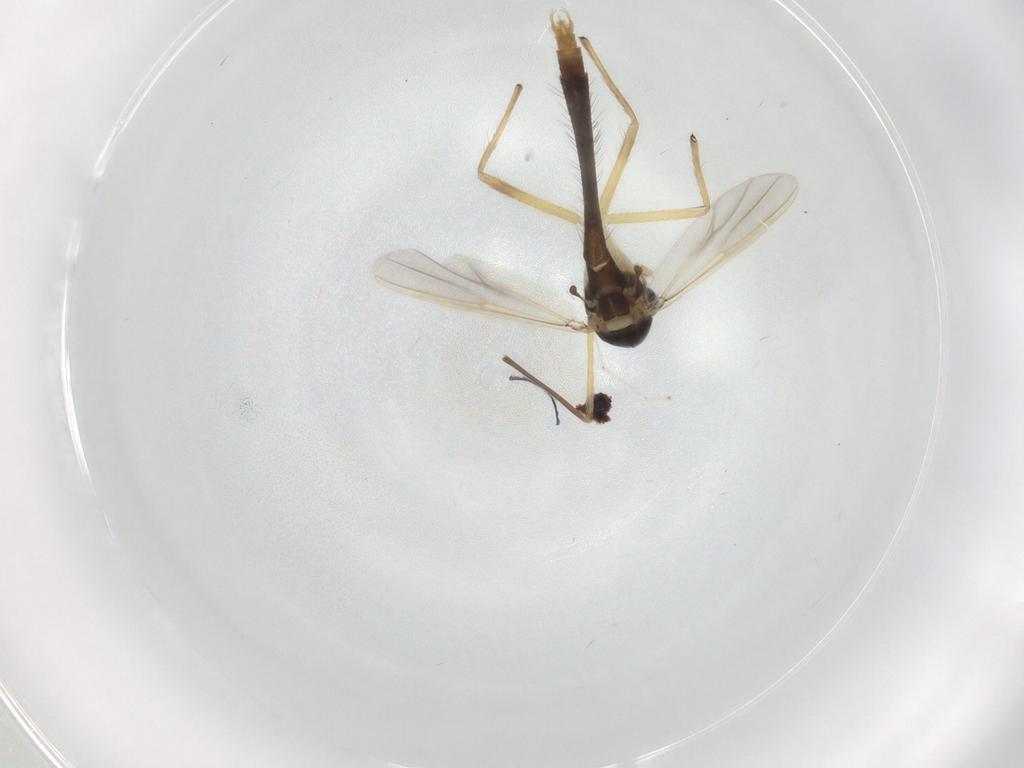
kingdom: Animalia
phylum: Arthropoda
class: Insecta
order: Diptera
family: Chironomidae
